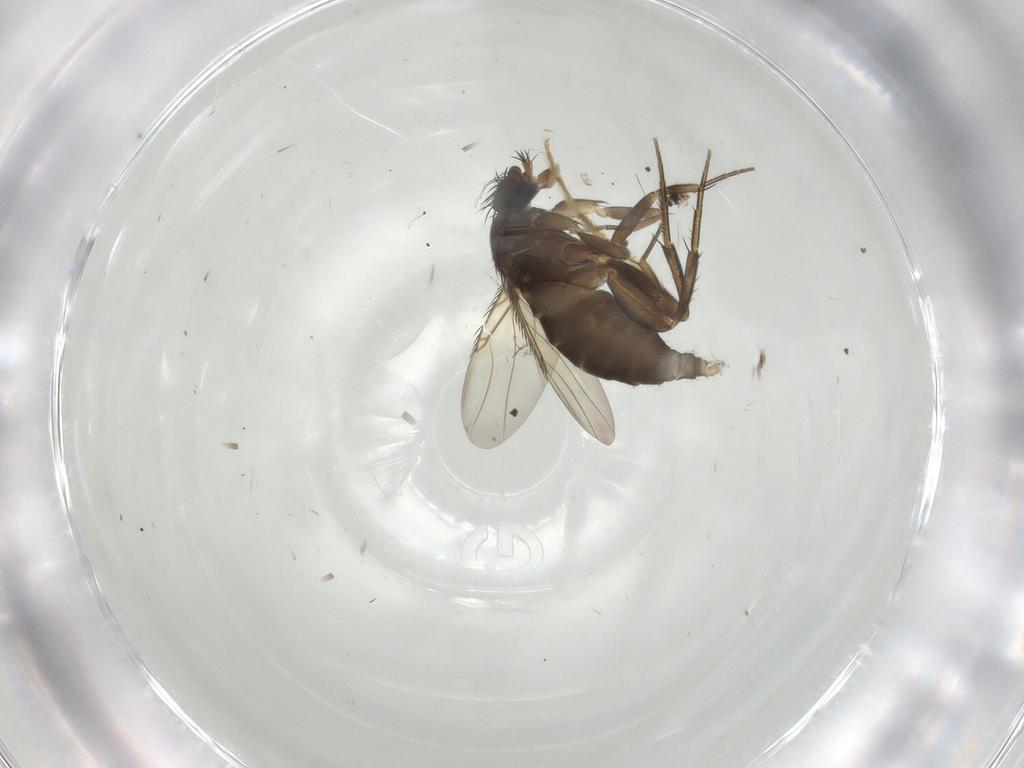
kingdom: Animalia
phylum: Arthropoda
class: Insecta
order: Diptera
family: Phoridae
